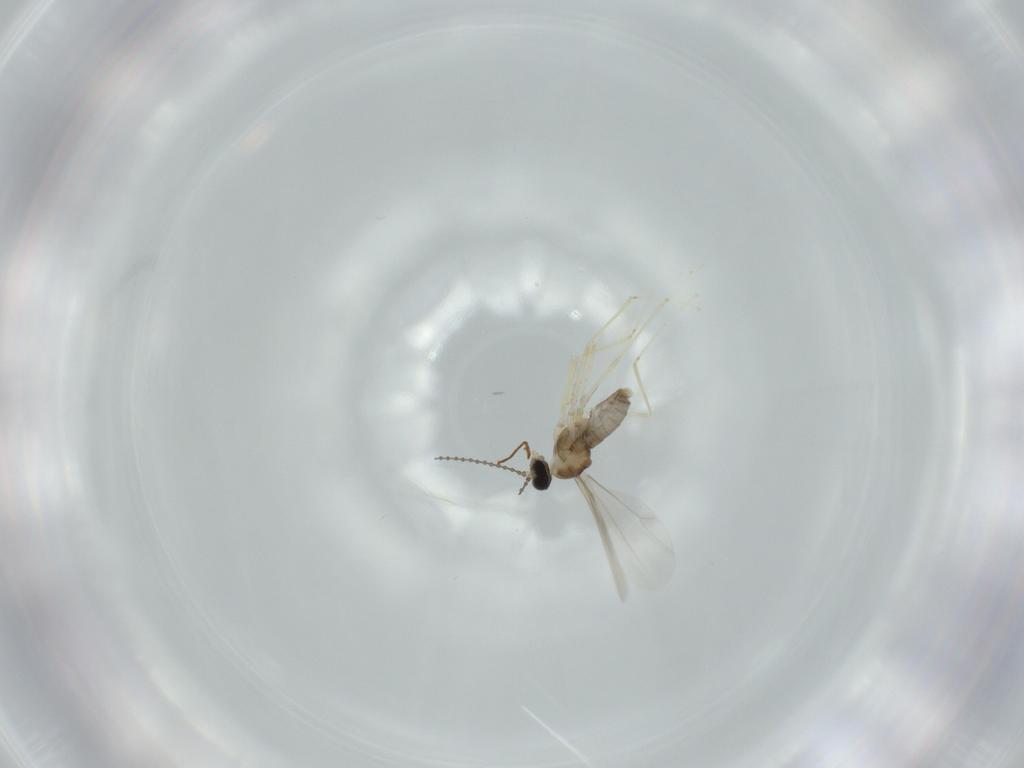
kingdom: Animalia
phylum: Arthropoda
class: Insecta
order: Diptera
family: Cecidomyiidae
